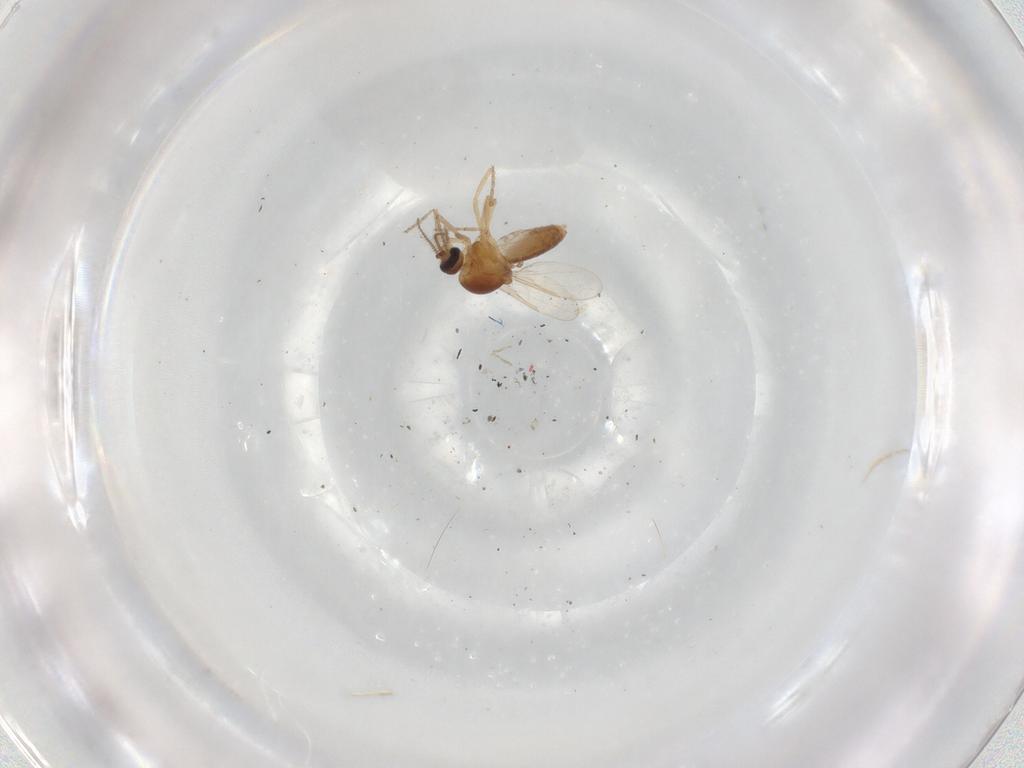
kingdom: Animalia
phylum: Arthropoda
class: Insecta
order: Diptera
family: Ceratopogonidae
